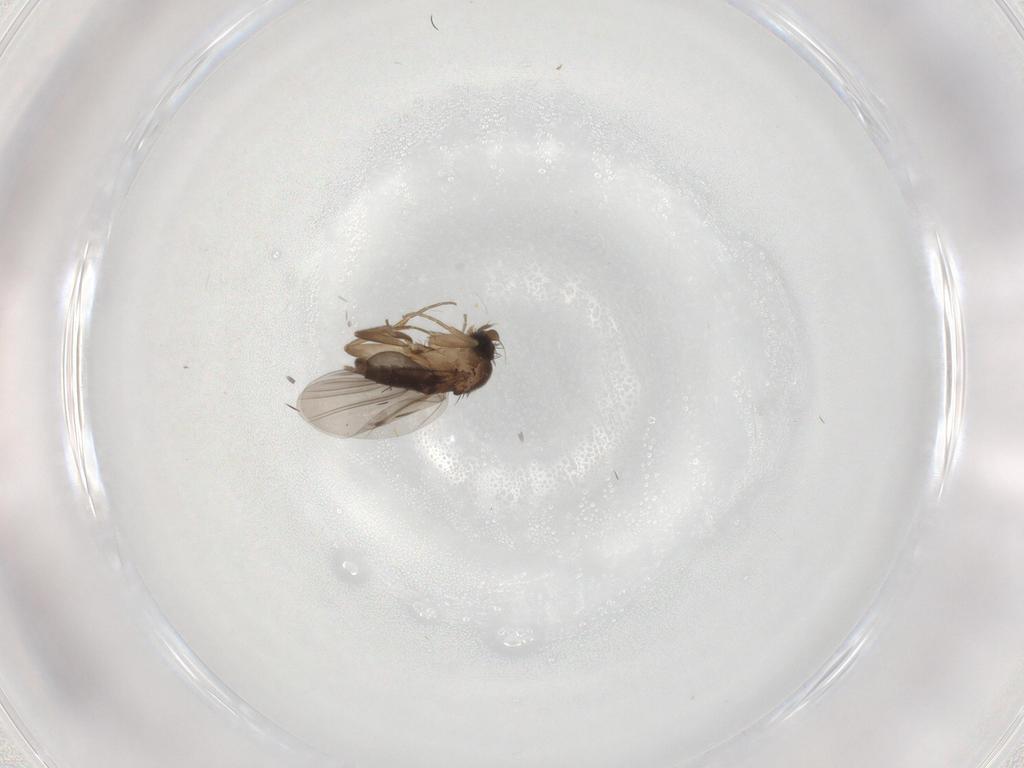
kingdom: Animalia
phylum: Arthropoda
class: Insecta
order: Diptera
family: Phoridae
